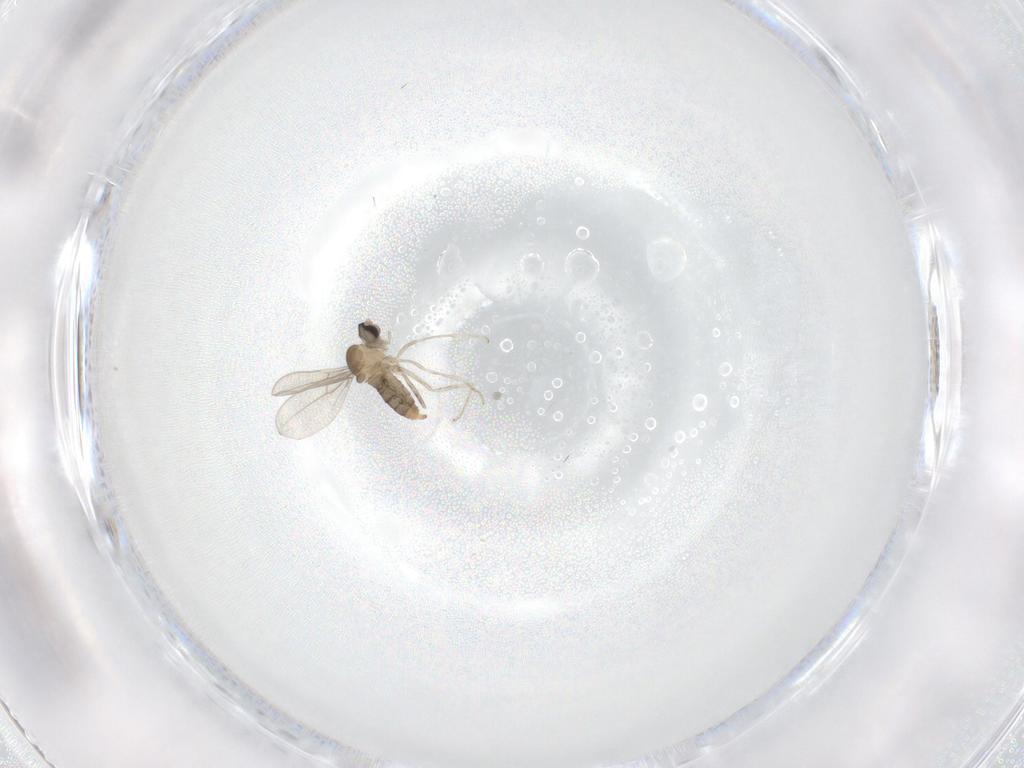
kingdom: Animalia
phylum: Arthropoda
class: Insecta
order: Diptera
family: Cecidomyiidae
